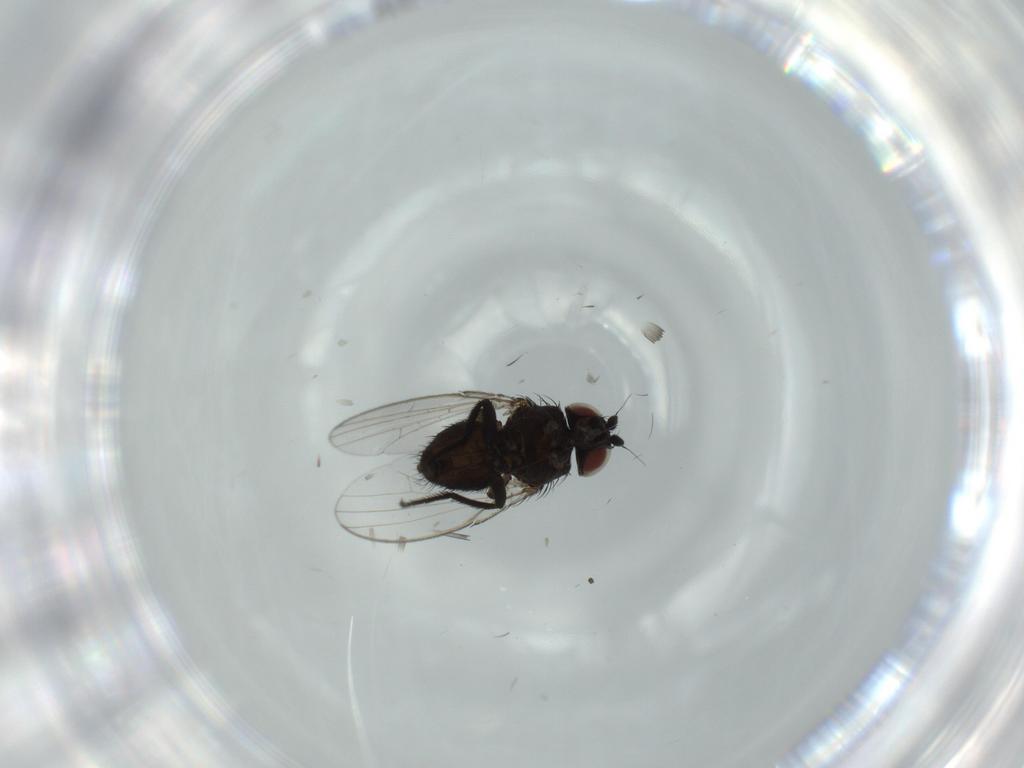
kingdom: Animalia
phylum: Arthropoda
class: Insecta
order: Diptera
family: Milichiidae
